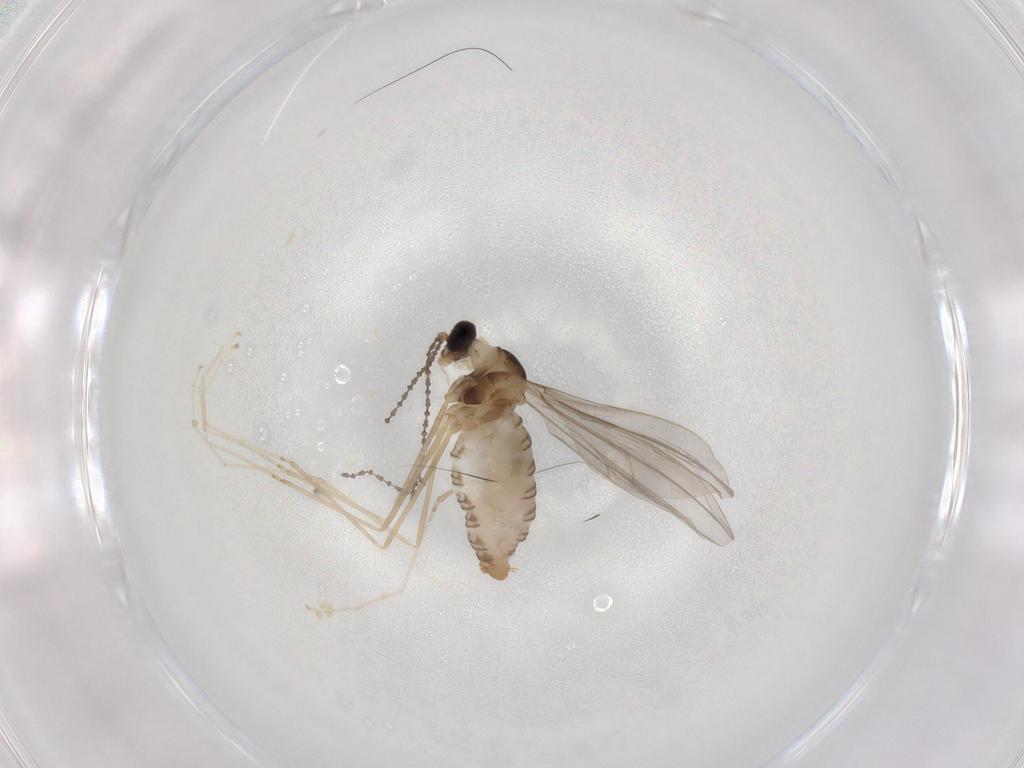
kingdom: Animalia
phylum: Arthropoda
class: Insecta
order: Diptera
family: Cecidomyiidae
